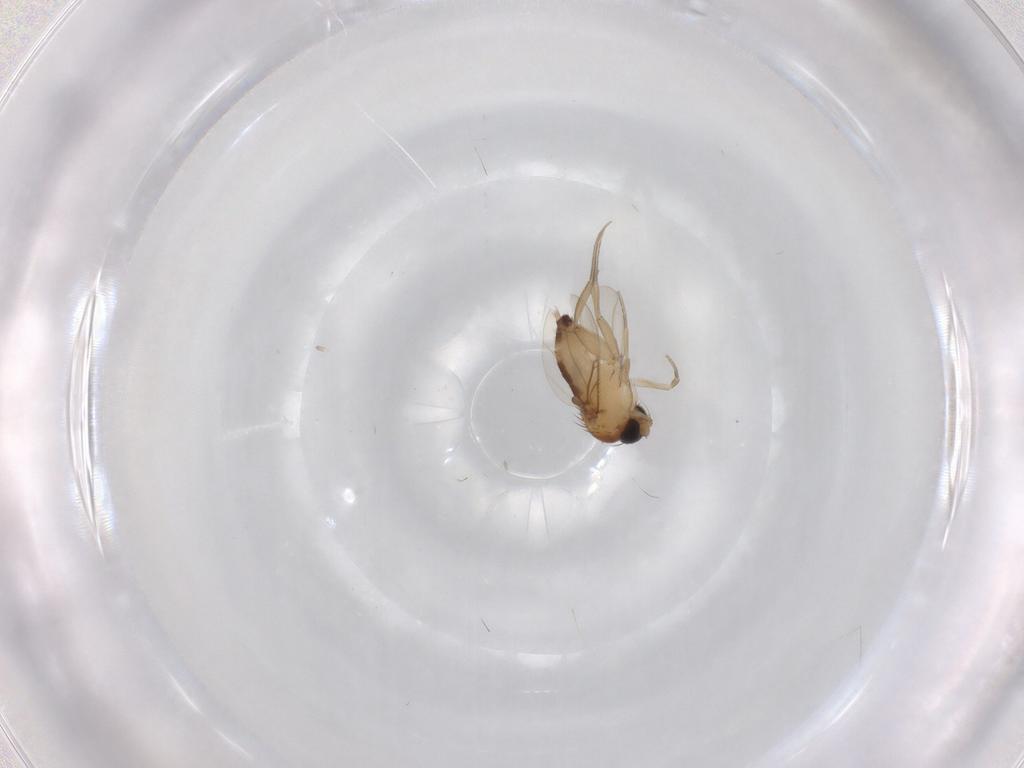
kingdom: Animalia
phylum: Arthropoda
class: Insecta
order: Diptera
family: Phoridae
